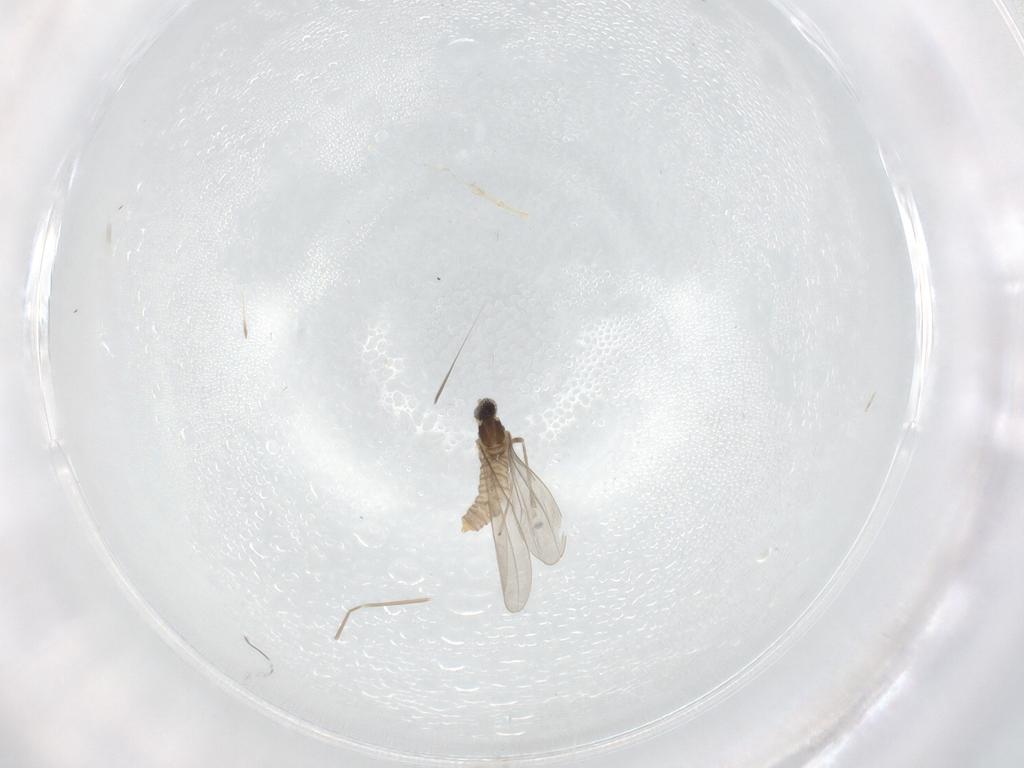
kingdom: Animalia
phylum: Arthropoda
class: Insecta
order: Diptera
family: Cecidomyiidae
